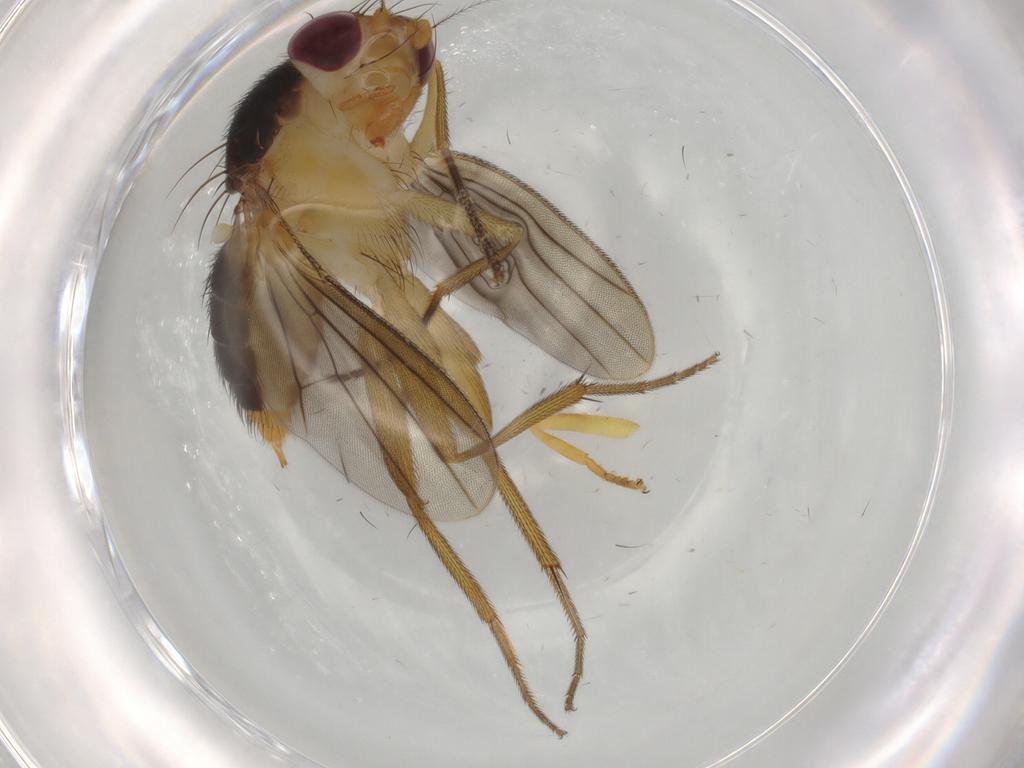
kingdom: Animalia
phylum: Arthropoda
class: Insecta
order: Diptera
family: Clusiidae
